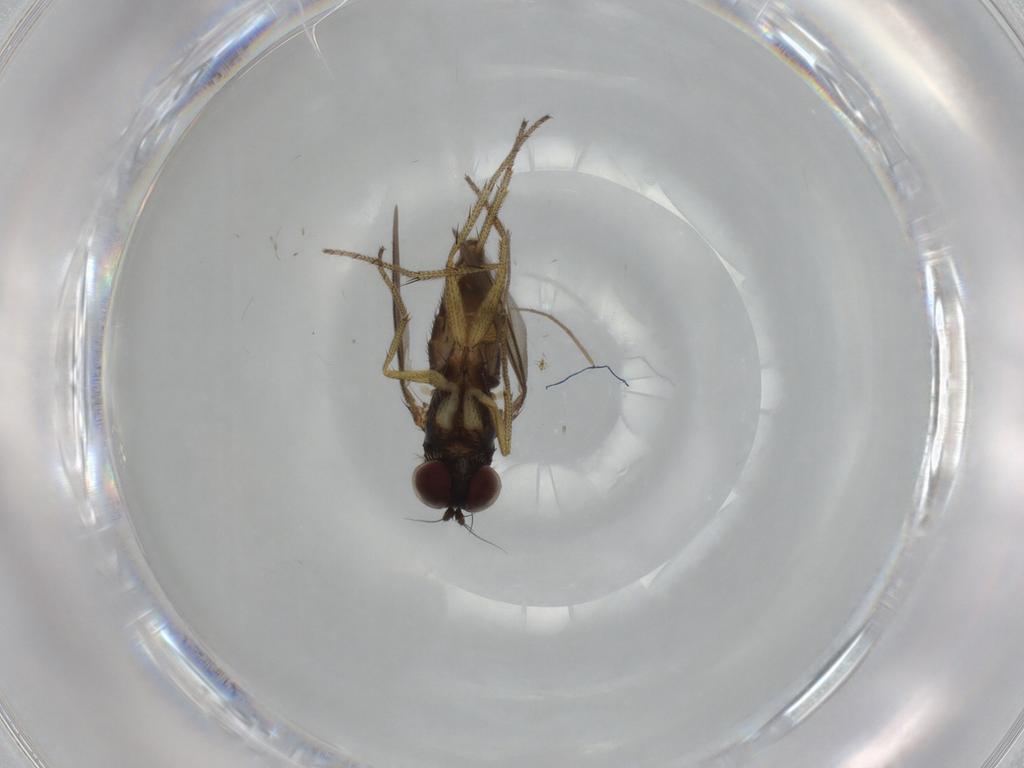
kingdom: Animalia
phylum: Arthropoda
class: Insecta
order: Diptera
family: Dolichopodidae
